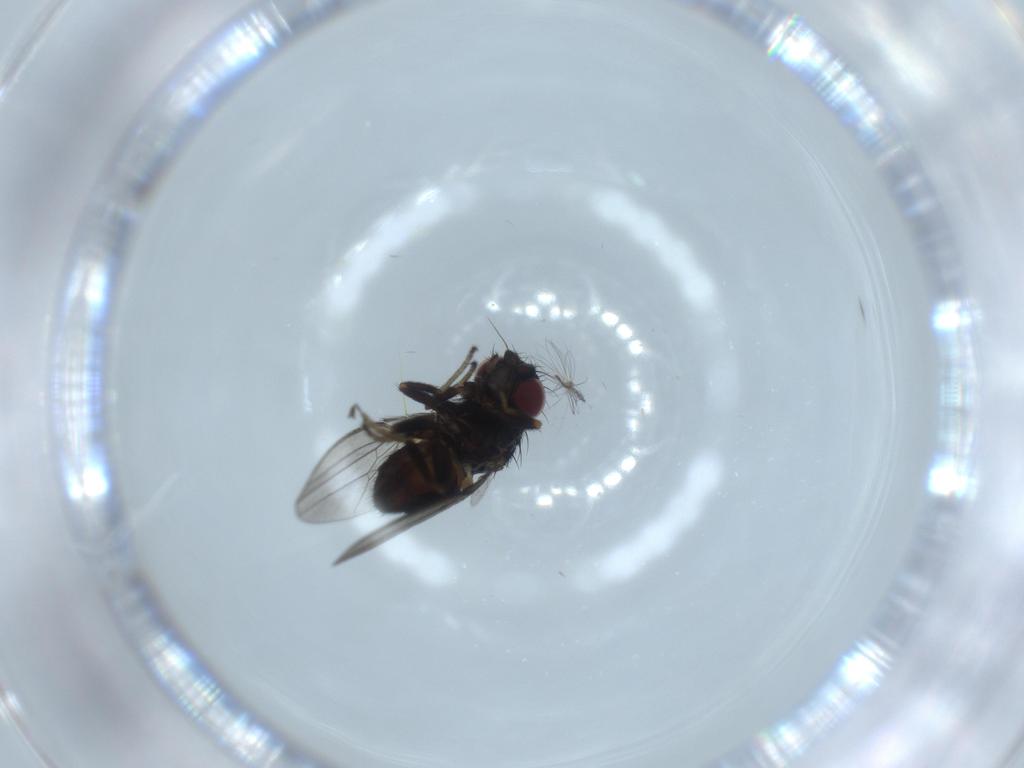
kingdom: Animalia
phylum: Arthropoda
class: Insecta
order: Diptera
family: Milichiidae
